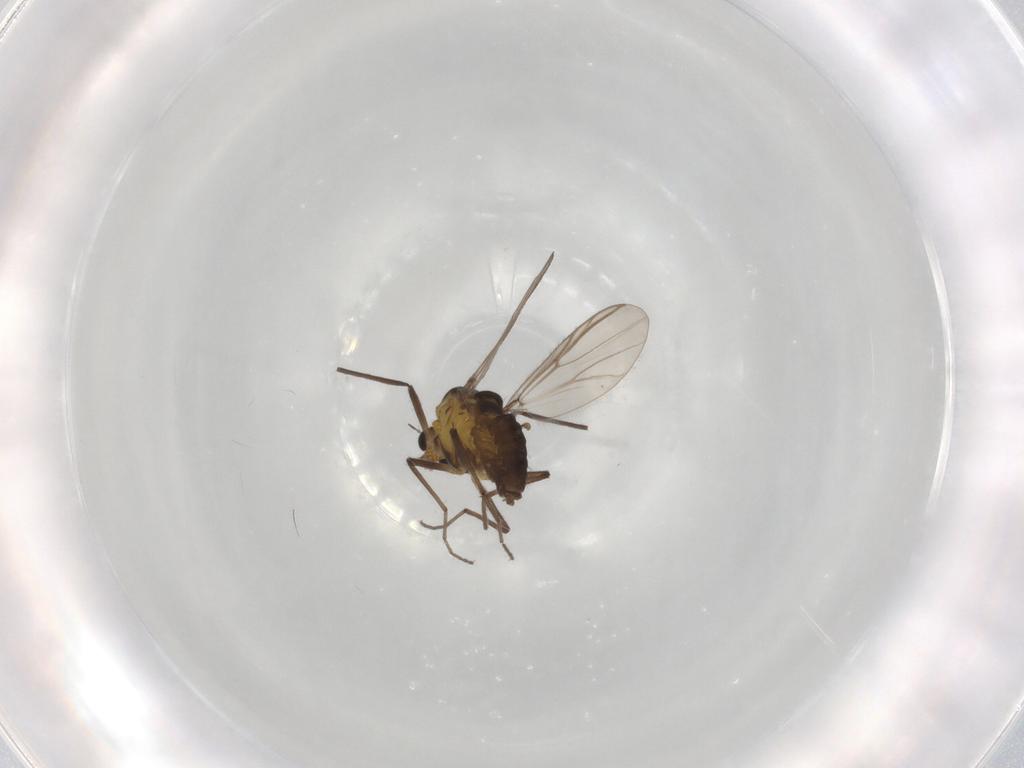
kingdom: Animalia
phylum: Arthropoda
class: Insecta
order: Diptera
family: Chironomidae
